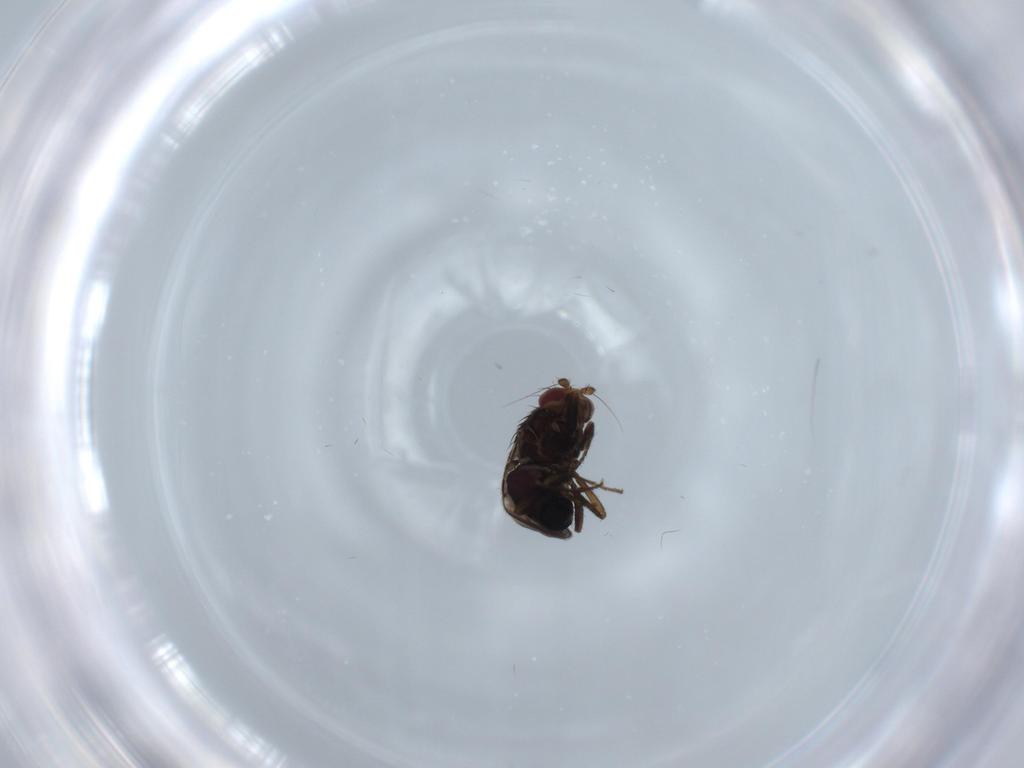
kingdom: Animalia
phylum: Arthropoda
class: Insecta
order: Diptera
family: Sphaeroceridae
